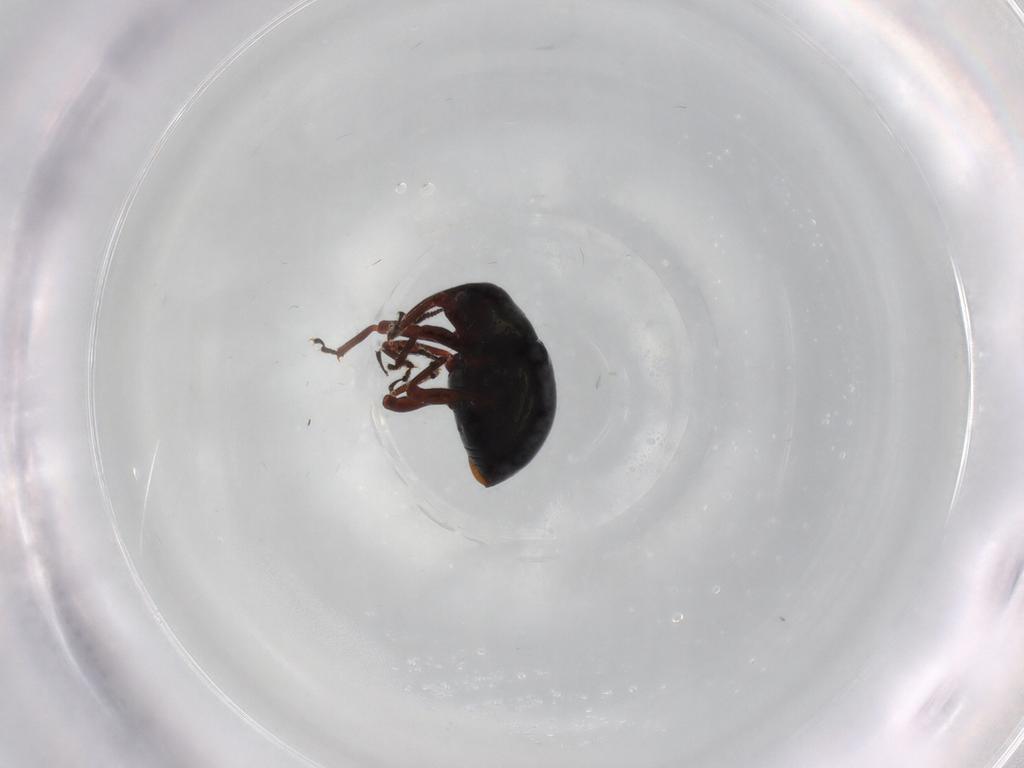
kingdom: Animalia
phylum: Arthropoda
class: Insecta
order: Coleoptera
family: Curculionidae
